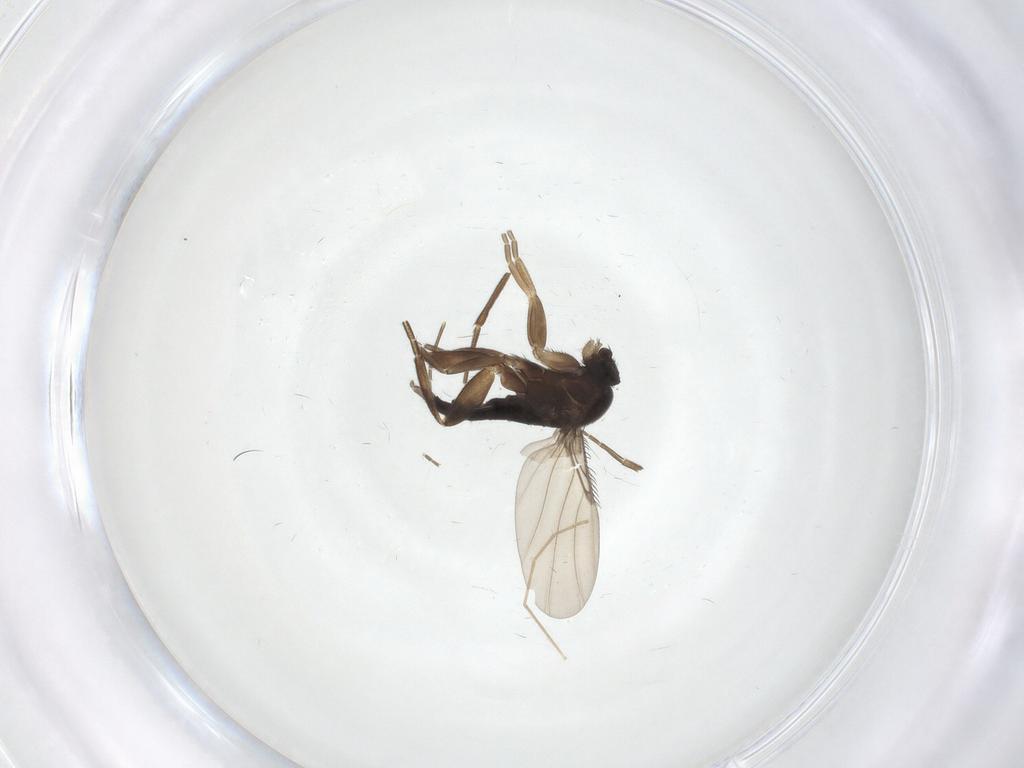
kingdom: Animalia
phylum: Arthropoda
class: Insecta
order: Diptera
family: Phoridae
